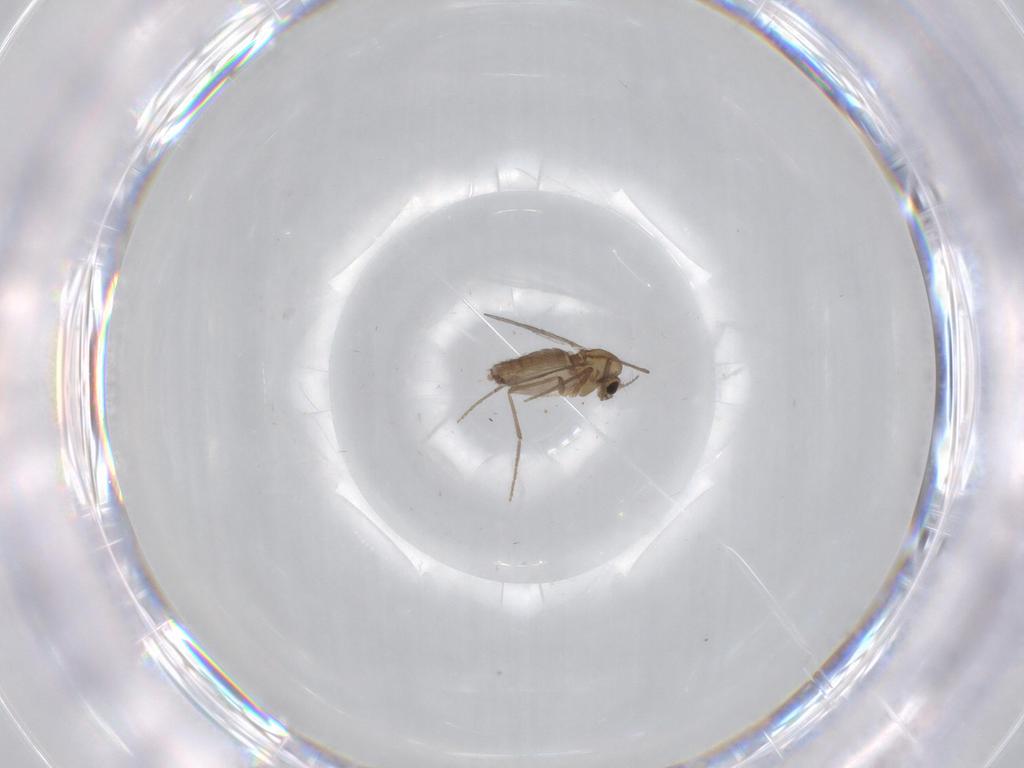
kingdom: Animalia
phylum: Arthropoda
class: Insecta
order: Diptera
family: Chironomidae
